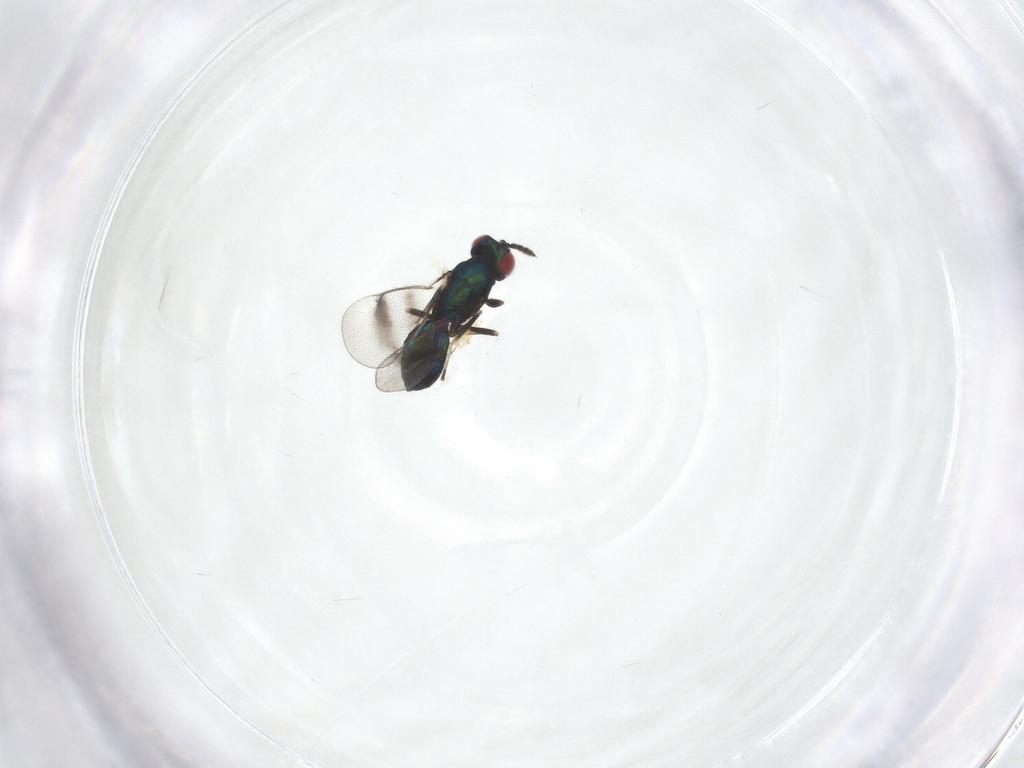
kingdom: Animalia
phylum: Arthropoda
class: Insecta
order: Hymenoptera
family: Eulophidae
